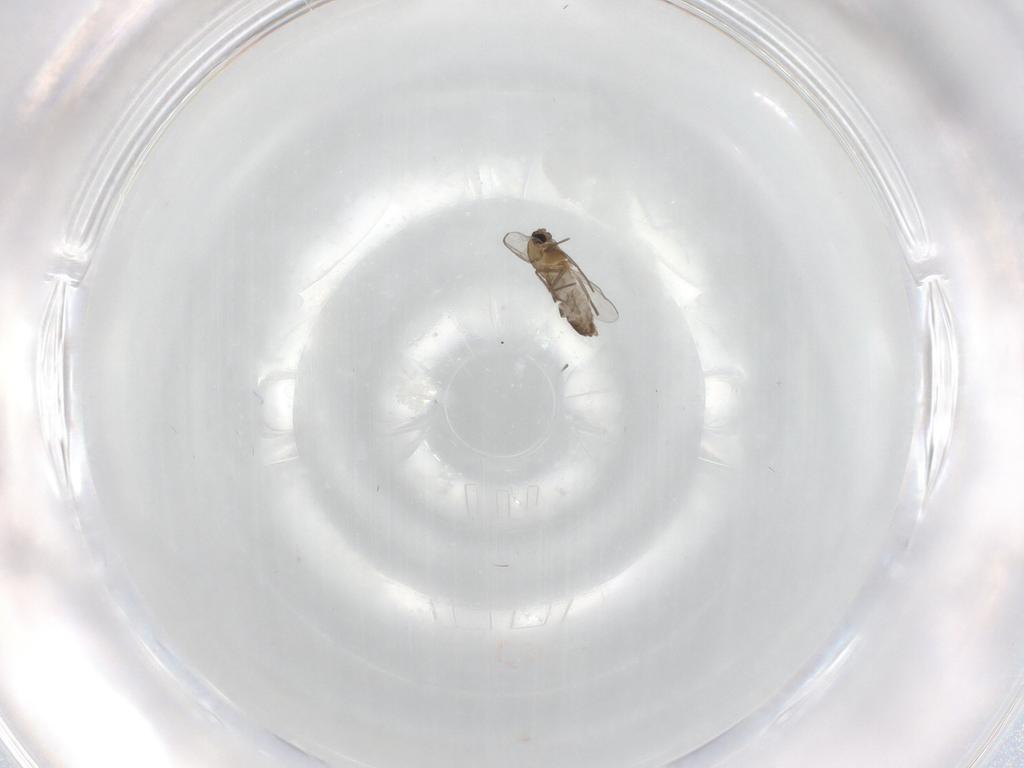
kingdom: Animalia
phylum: Arthropoda
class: Insecta
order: Diptera
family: Chironomidae
